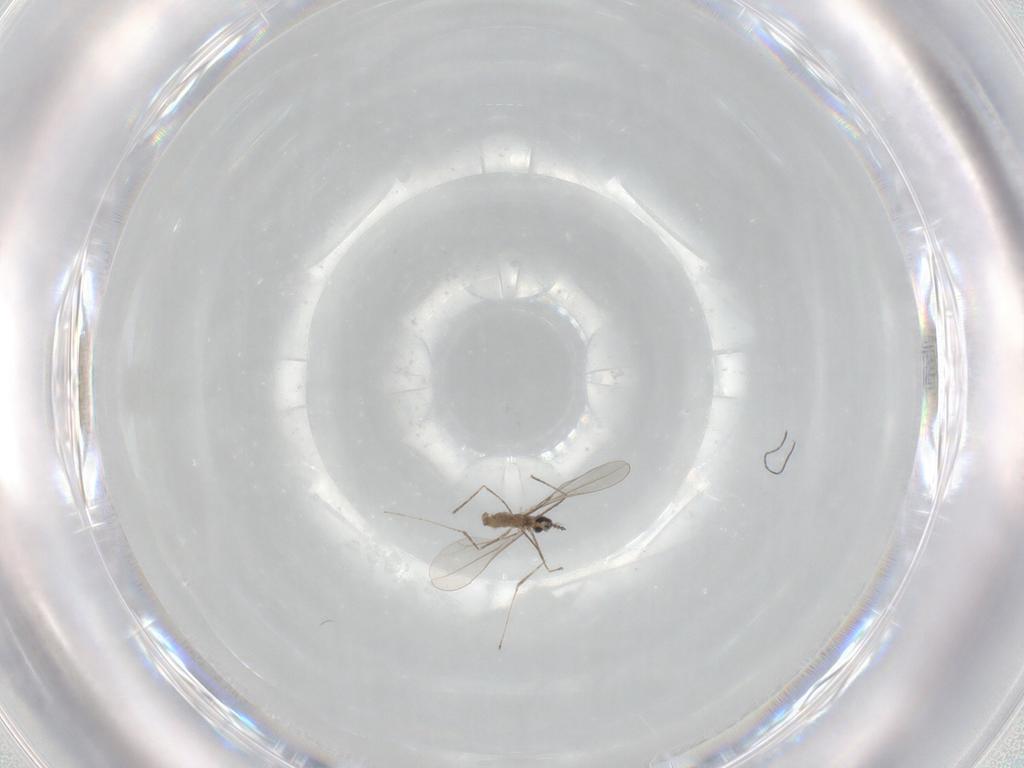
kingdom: Animalia
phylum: Arthropoda
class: Insecta
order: Diptera
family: Cecidomyiidae
